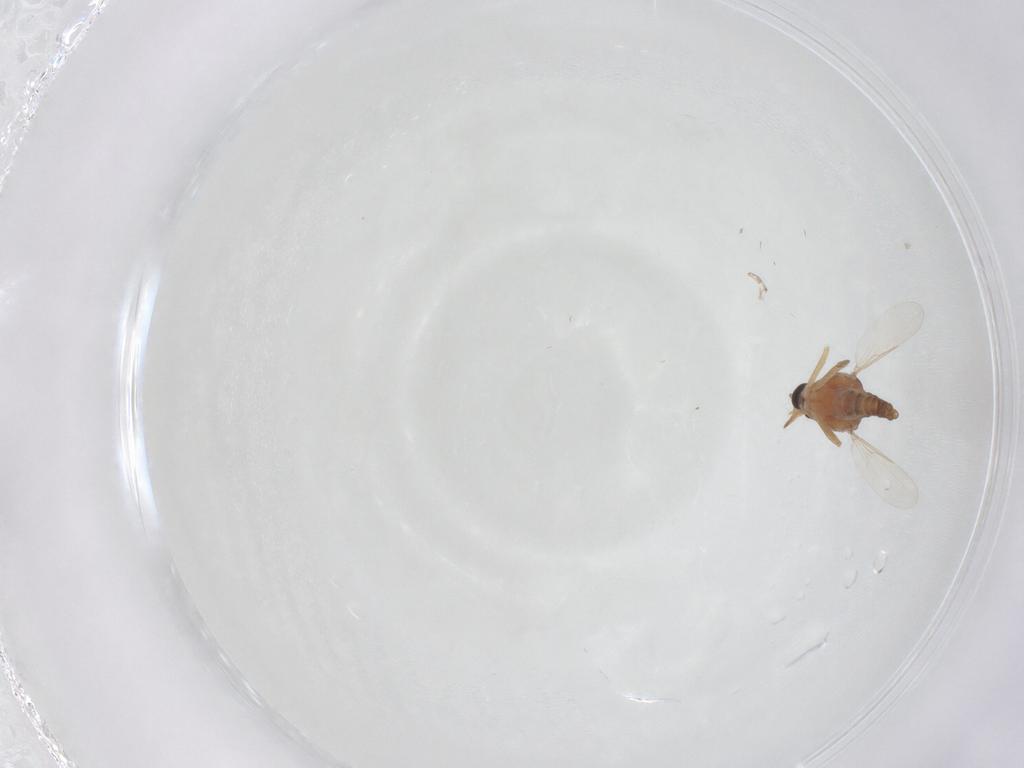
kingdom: Animalia
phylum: Arthropoda
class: Insecta
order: Diptera
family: Ceratopogonidae
